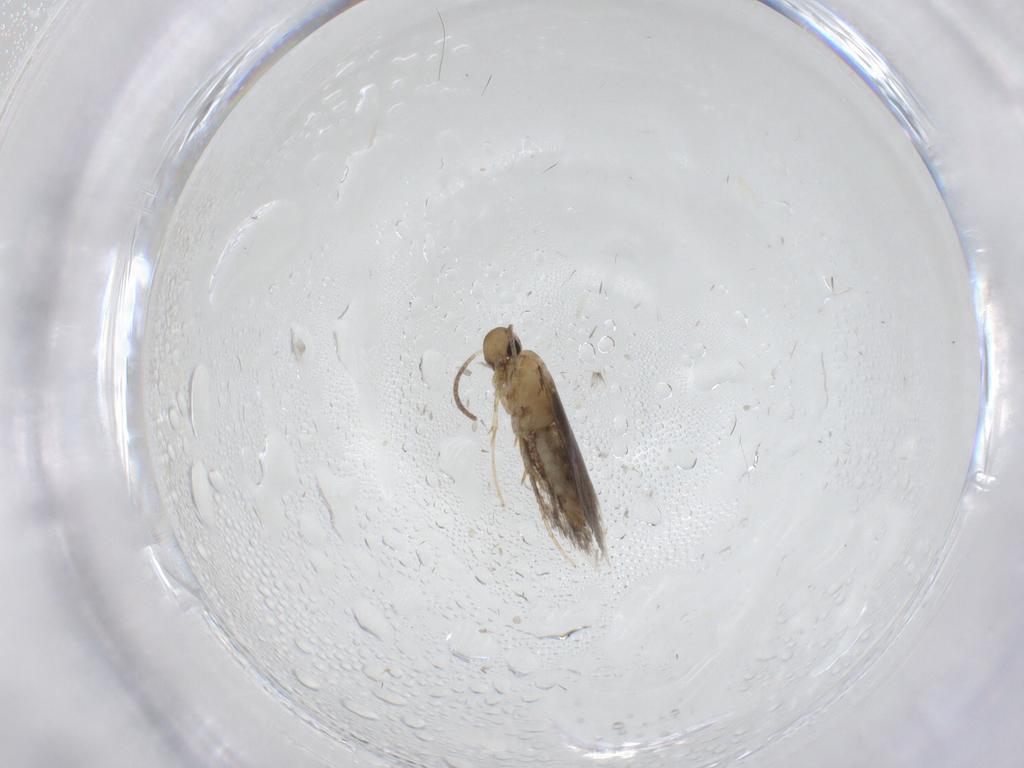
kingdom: Animalia
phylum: Arthropoda
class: Insecta
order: Lepidoptera
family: Heliozelidae
